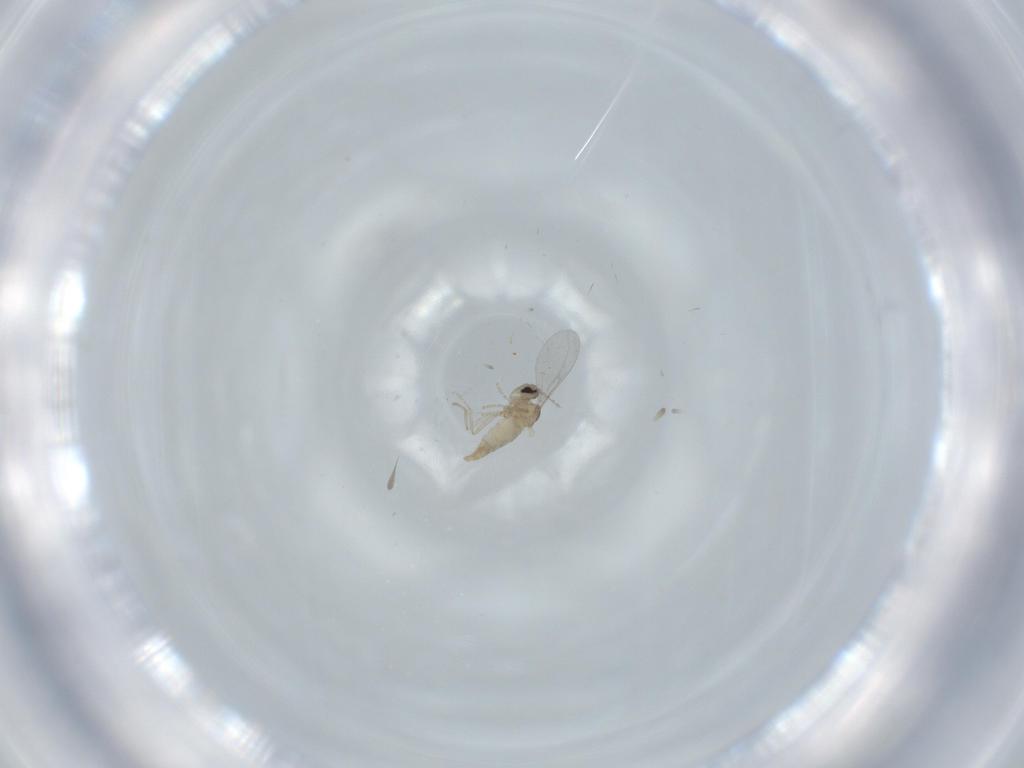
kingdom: Animalia
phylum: Arthropoda
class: Insecta
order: Diptera
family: Cecidomyiidae
